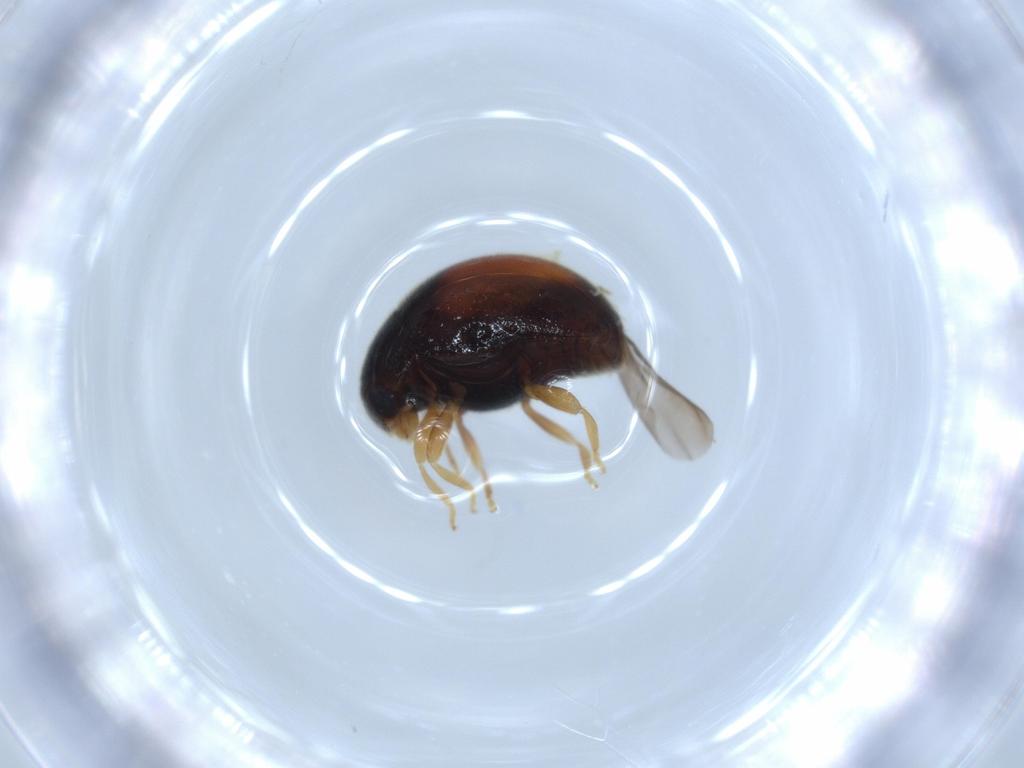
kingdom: Animalia
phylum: Arthropoda
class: Insecta
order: Coleoptera
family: Coccinellidae
